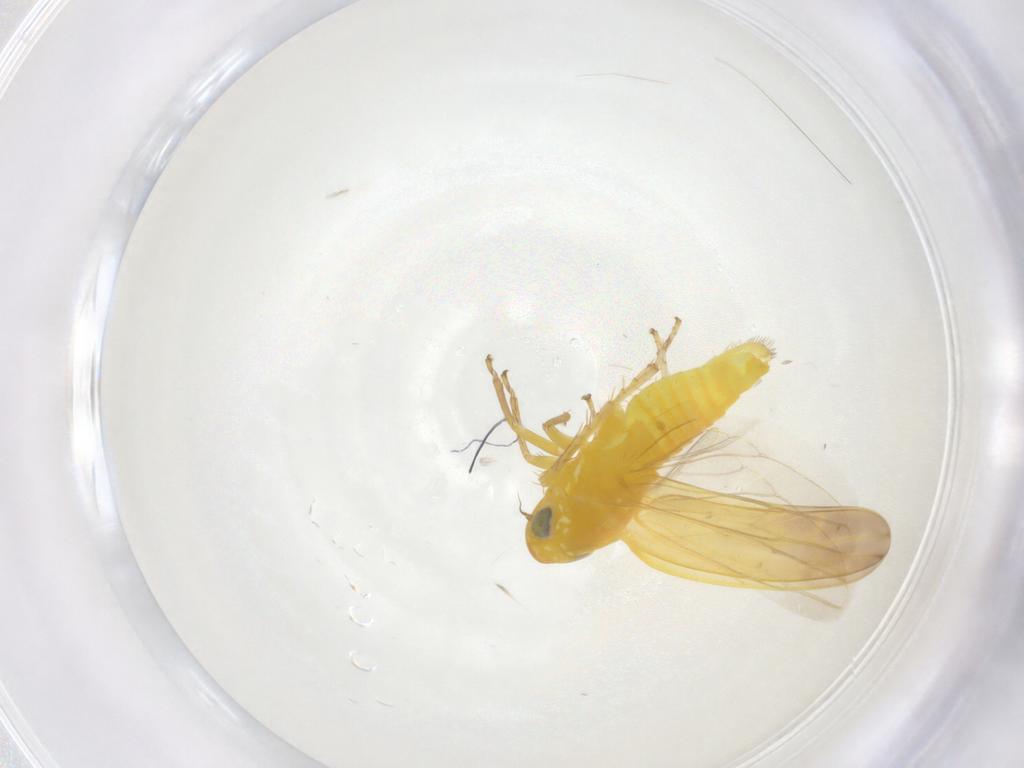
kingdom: Animalia
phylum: Arthropoda
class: Insecta
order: Hemiptera
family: Cicadellidae
